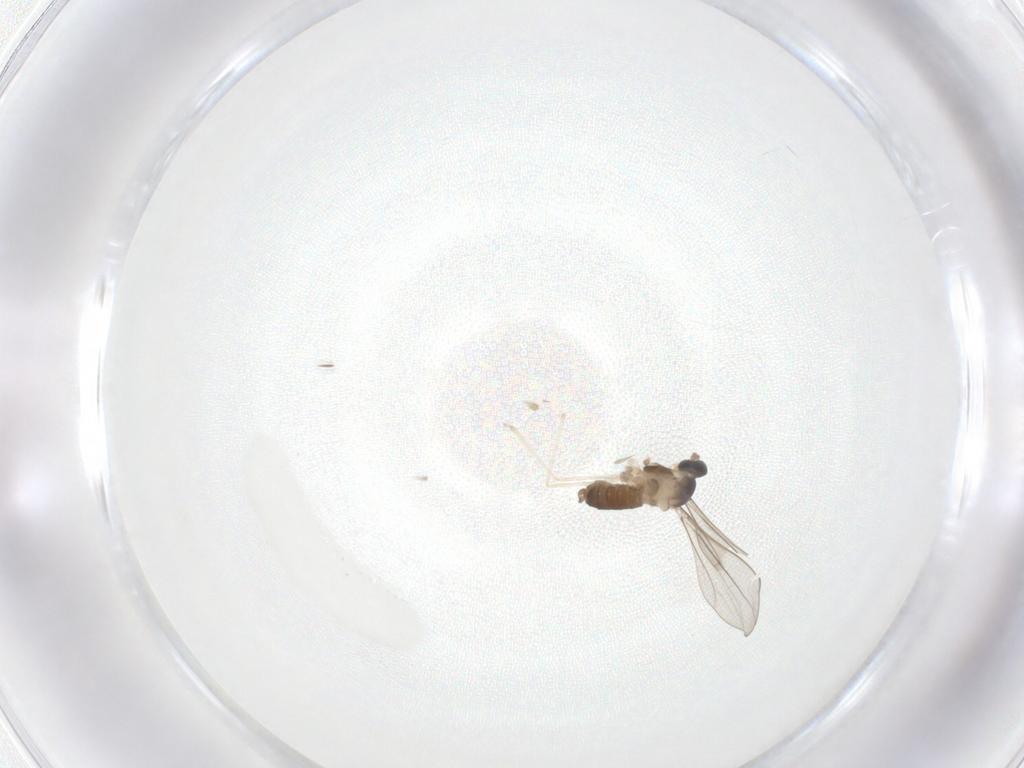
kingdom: Animalia
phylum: Arthropoda
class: Insecta
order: Diptera
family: Cecidomyiidae
